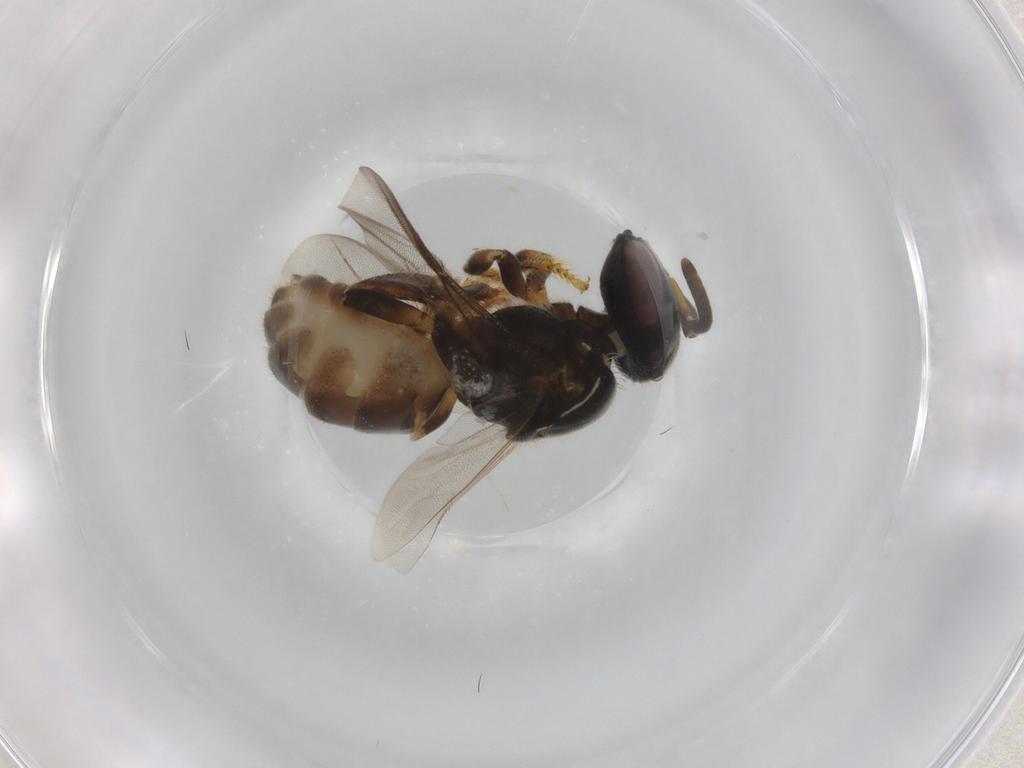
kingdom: Animalia
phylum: Arthropoda
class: Insecta
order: Hymenoptera
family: Apidae
